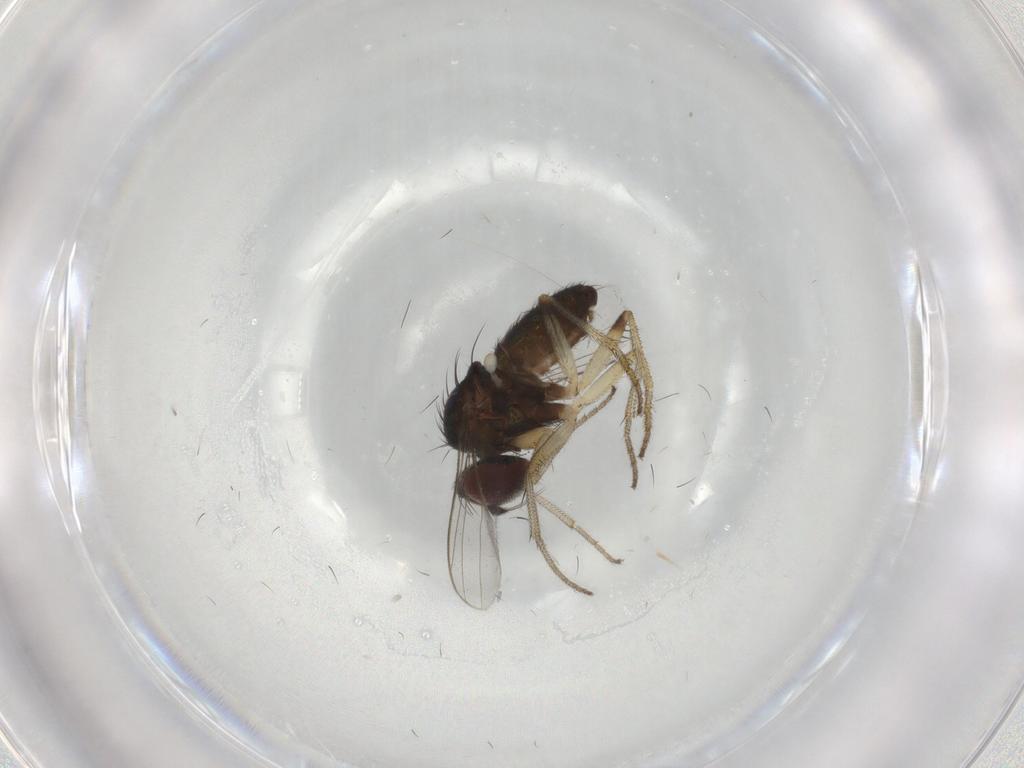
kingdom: Animalia
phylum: Arthropoda
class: Insecta
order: Diptera
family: Dolichopodidae
